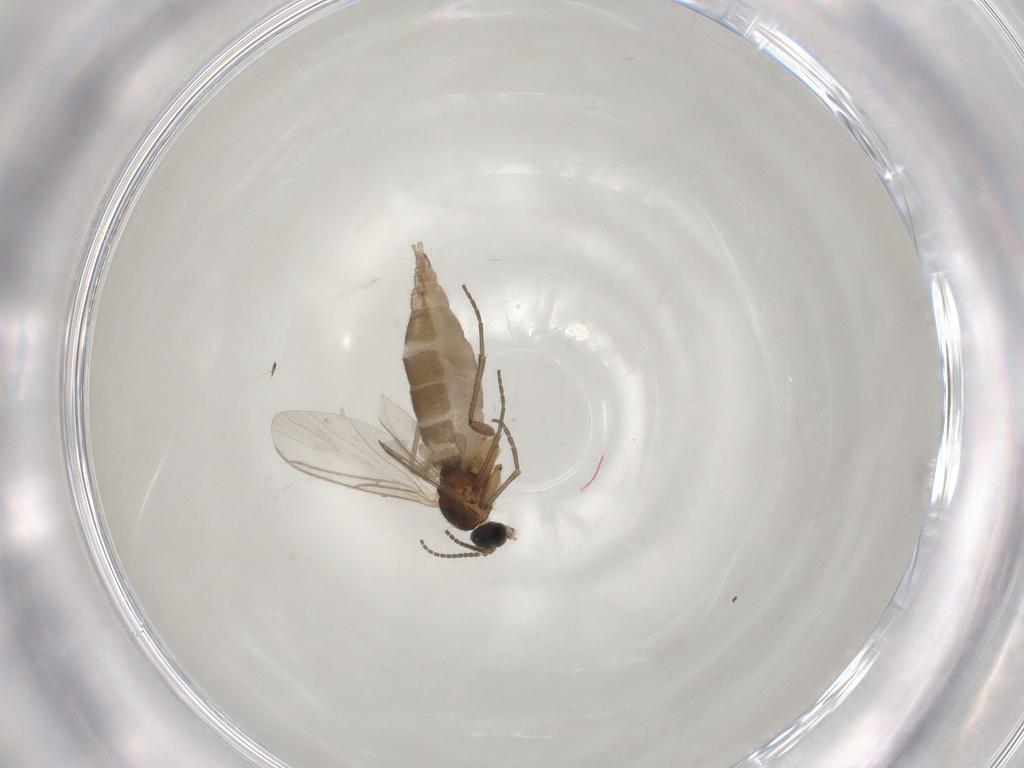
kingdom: Animalia
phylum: Arthropoda
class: Insecta
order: Diptera
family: Sciaridae
